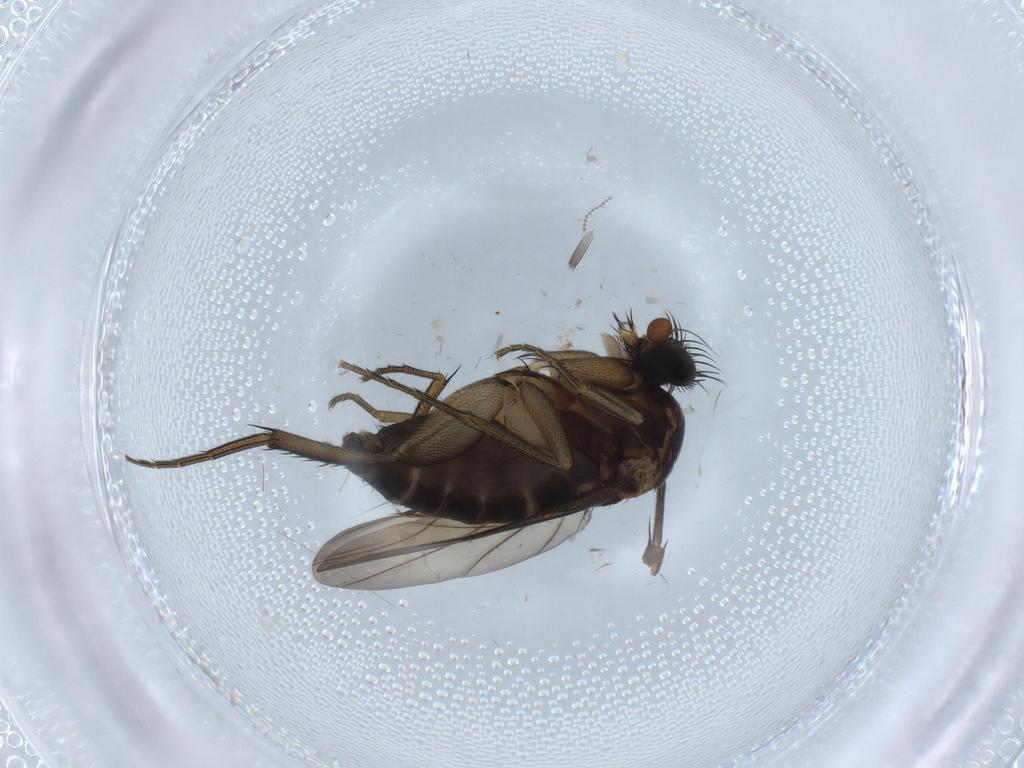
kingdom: Animalia
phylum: Arthropoda
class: Insecta
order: Diptera
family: Phoridae
